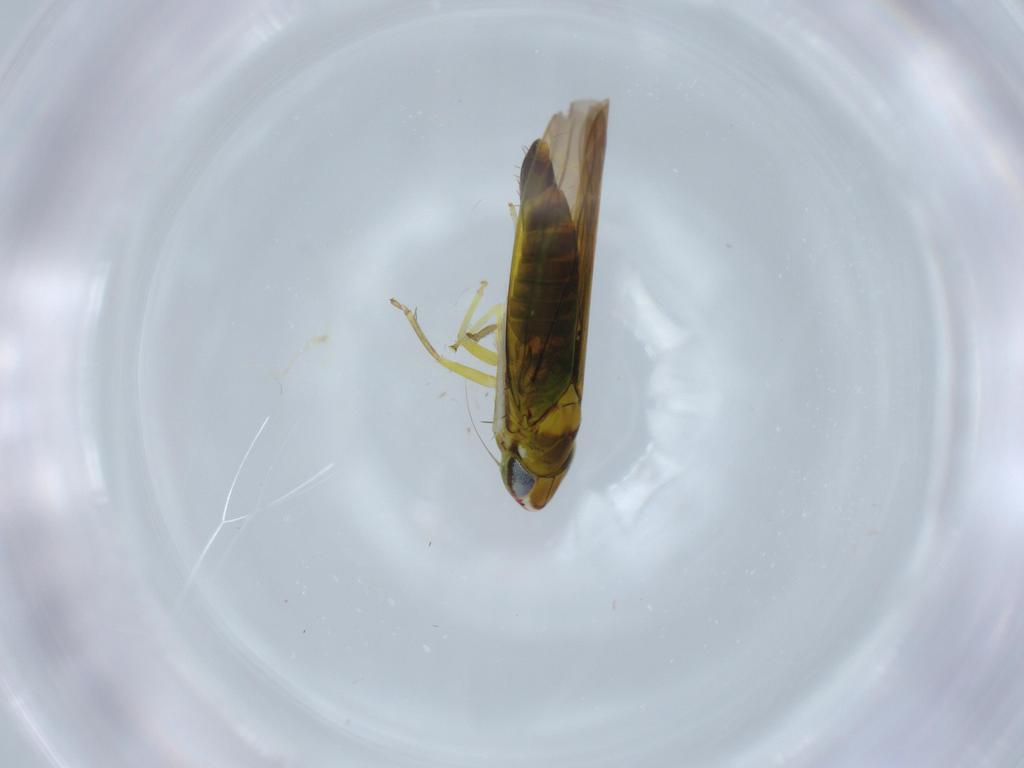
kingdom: Animalia
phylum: Arthropoda
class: Insecta
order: Hemiptera
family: Cicadellidae
